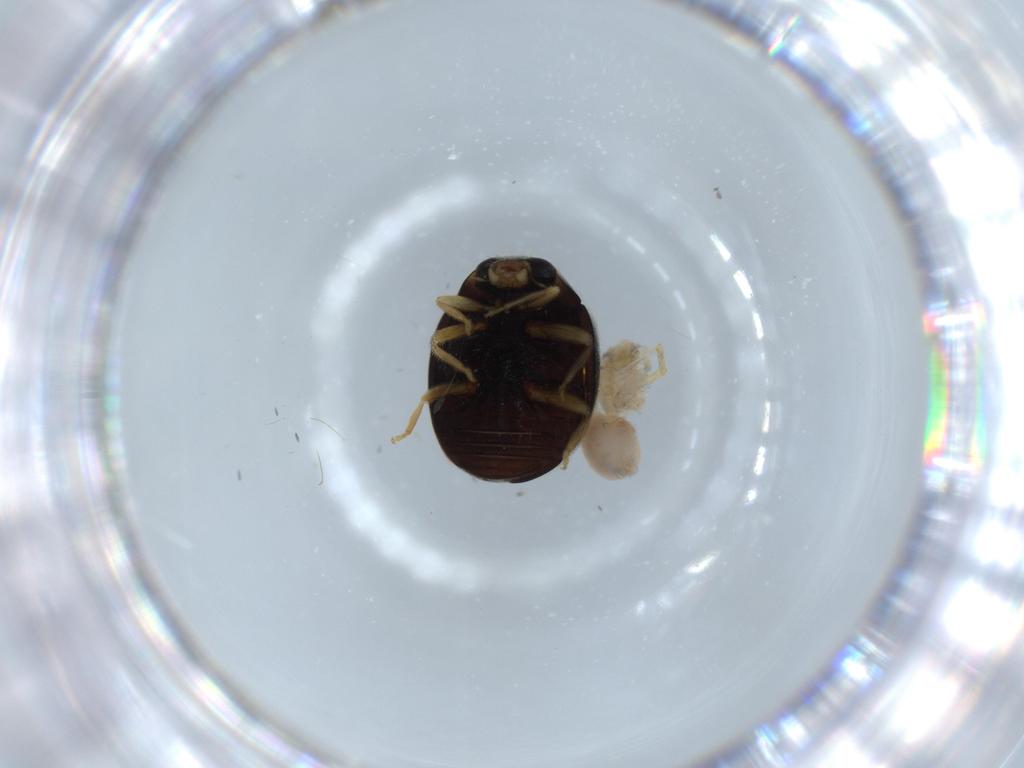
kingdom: Animalia
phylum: Arthropoda
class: Insecta
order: Coleoptera
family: Coccinellidae
